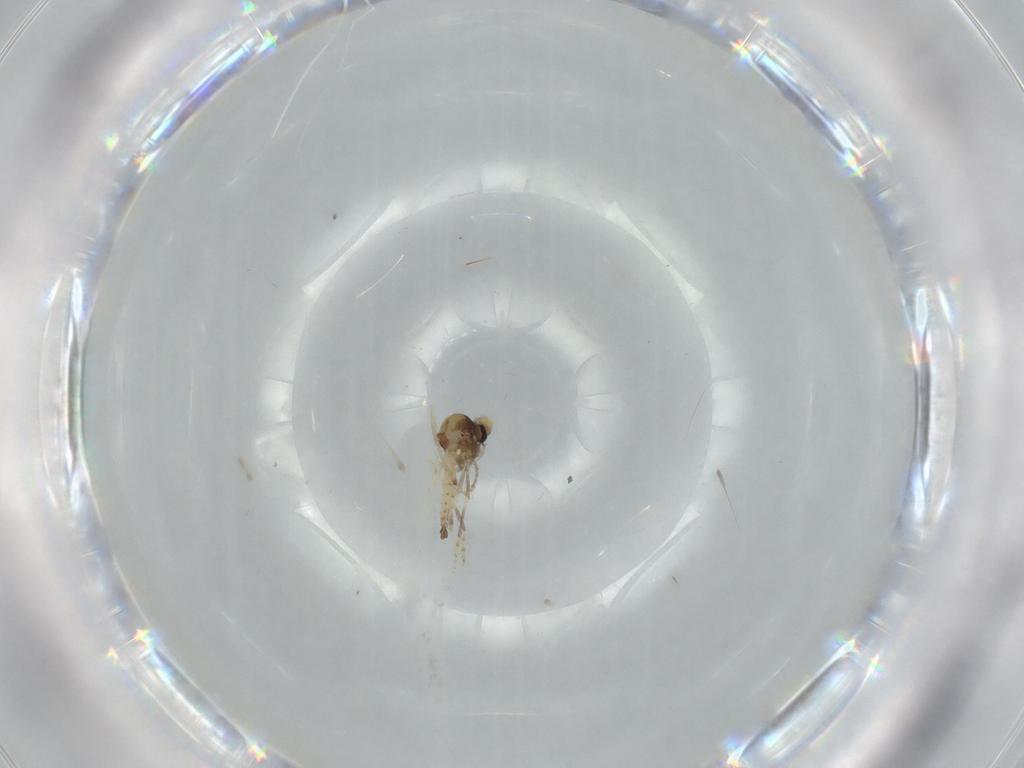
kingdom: Animalia
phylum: Arthropoda
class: Insecta
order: Diptera
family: Chironomidae
